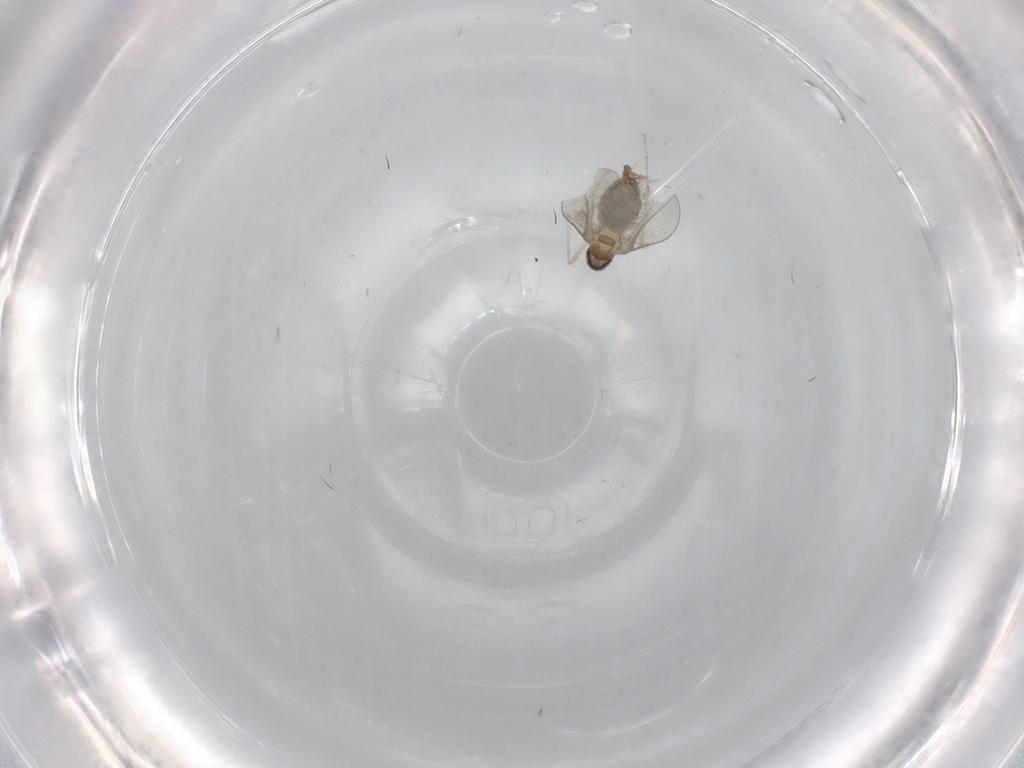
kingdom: Animalia
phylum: Arthropoda
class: Insecta
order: Diptera
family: Cecidomyiidae
